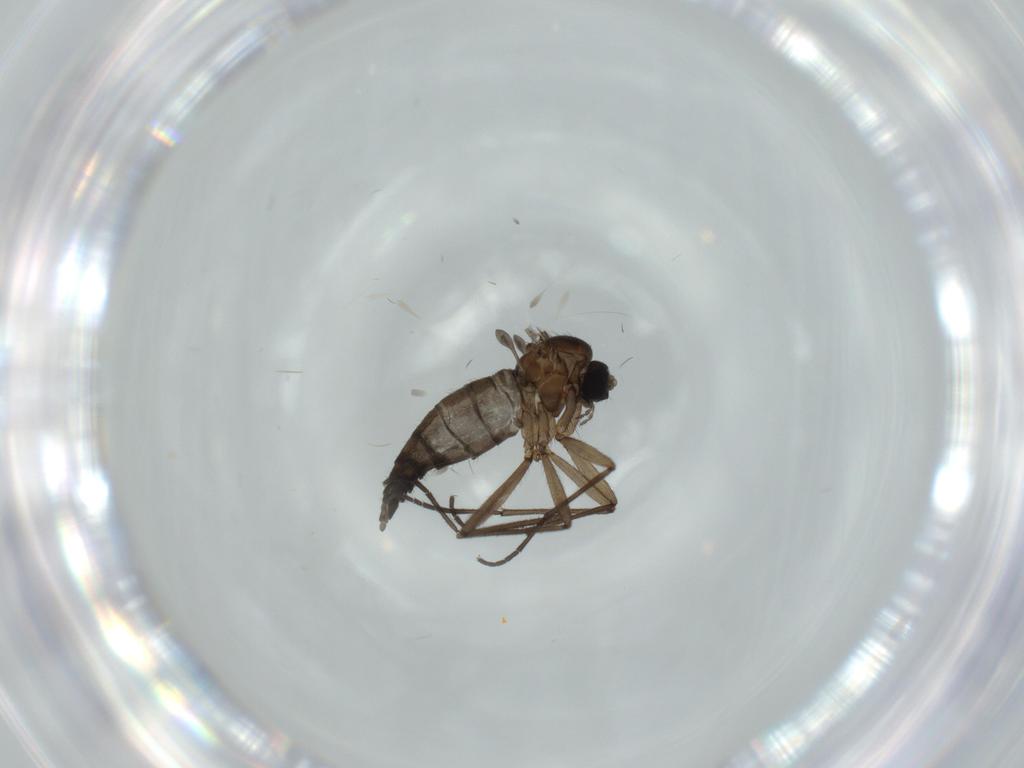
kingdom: Animalia
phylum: Arthropoda
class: Insecta
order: Diptera
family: Sciaridae
